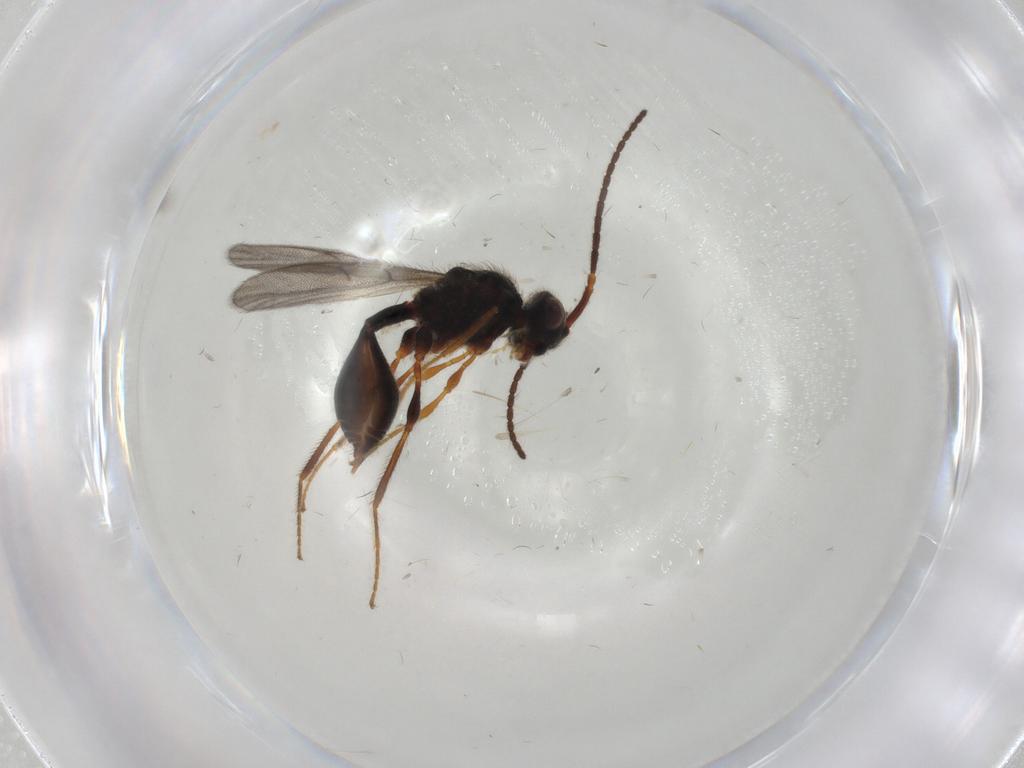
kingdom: Animalia
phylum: Arthropoda
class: Insecta
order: Hymenoptera
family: Diapriidae
